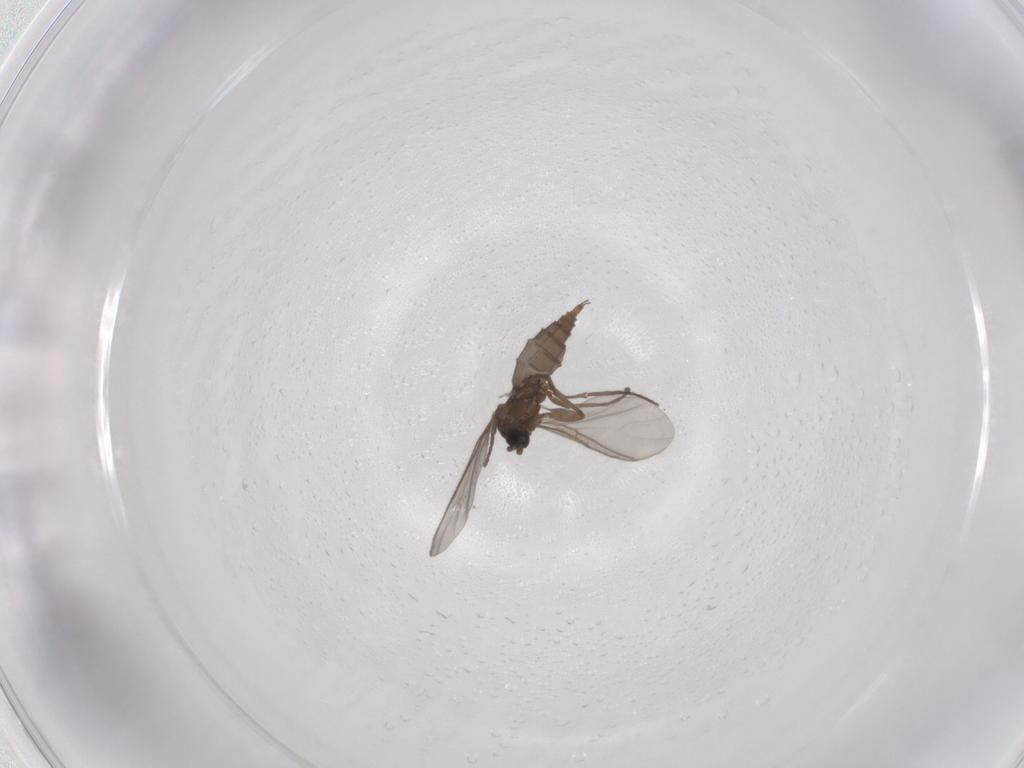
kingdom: Animalia
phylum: Arthropoda
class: Insecta
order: Diptera
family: Sciaridae
